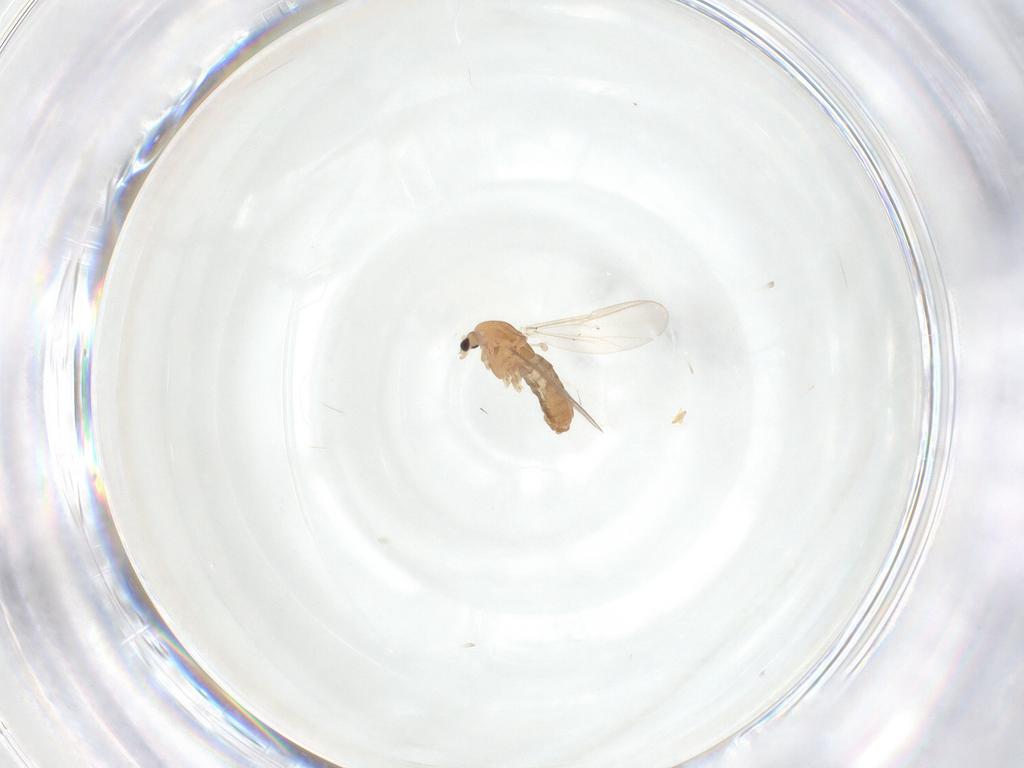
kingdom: Animalia
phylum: Arthropoda
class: Insecta
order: Diptera
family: Chironomidae
